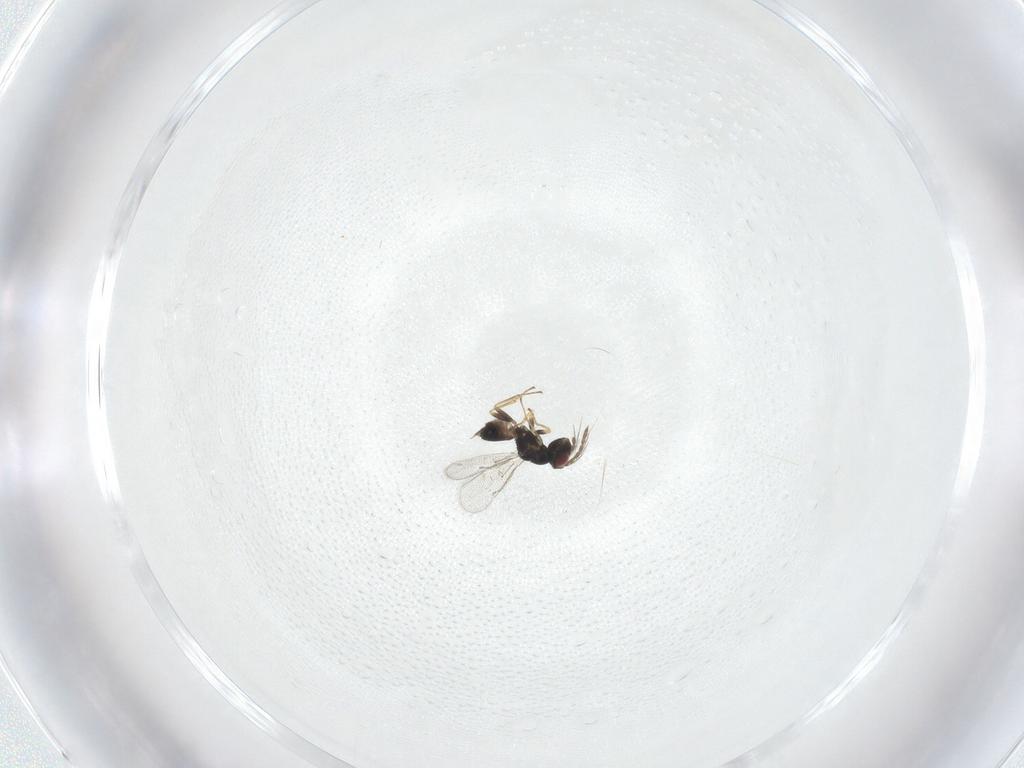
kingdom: Animalia
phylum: Arthropoda
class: Insecta
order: Hymenoptera
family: Eulophidae
